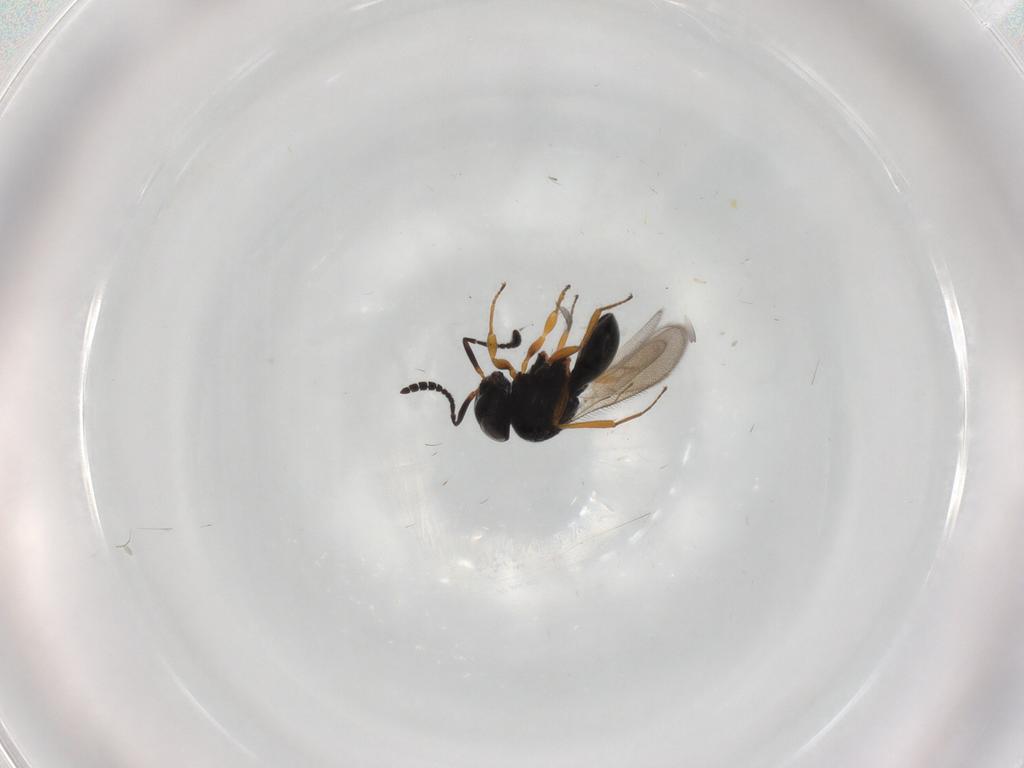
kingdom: Animalia
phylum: Arthropoda
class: Insecta
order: Hymenoptera
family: Scelionidae
